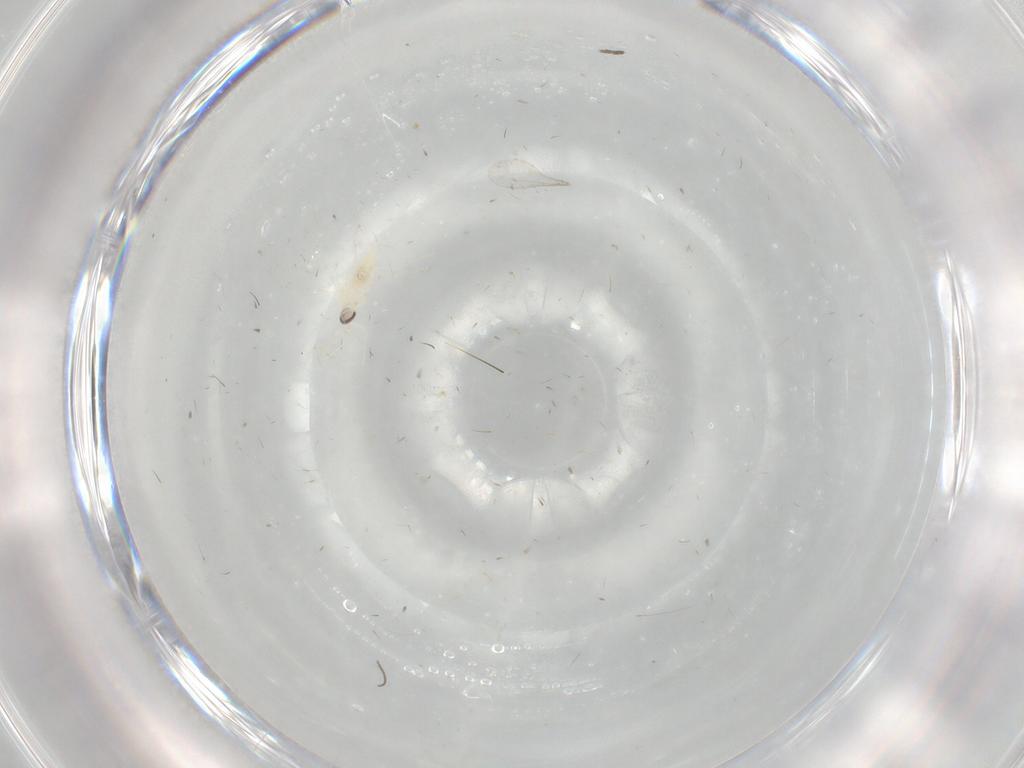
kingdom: Animalia
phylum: Arthropoda
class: Insecta
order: Diptera
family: Cecidomyiidae
